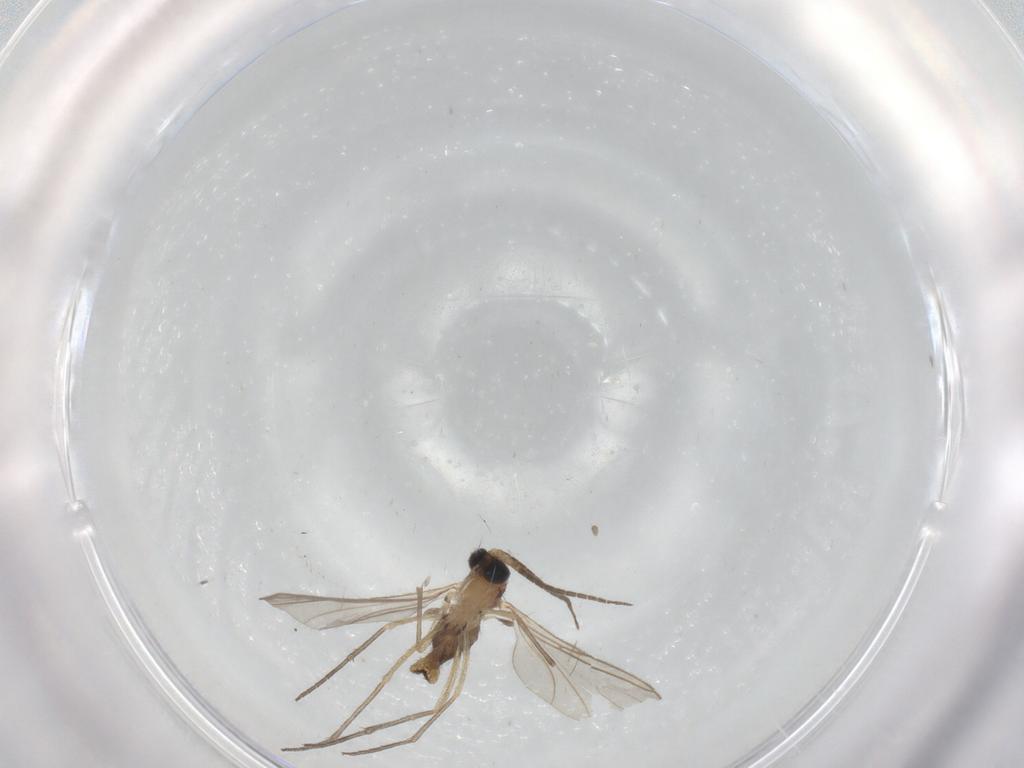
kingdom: Animalia
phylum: Arthropoda
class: Insecta
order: Diptera
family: Sciaridae
